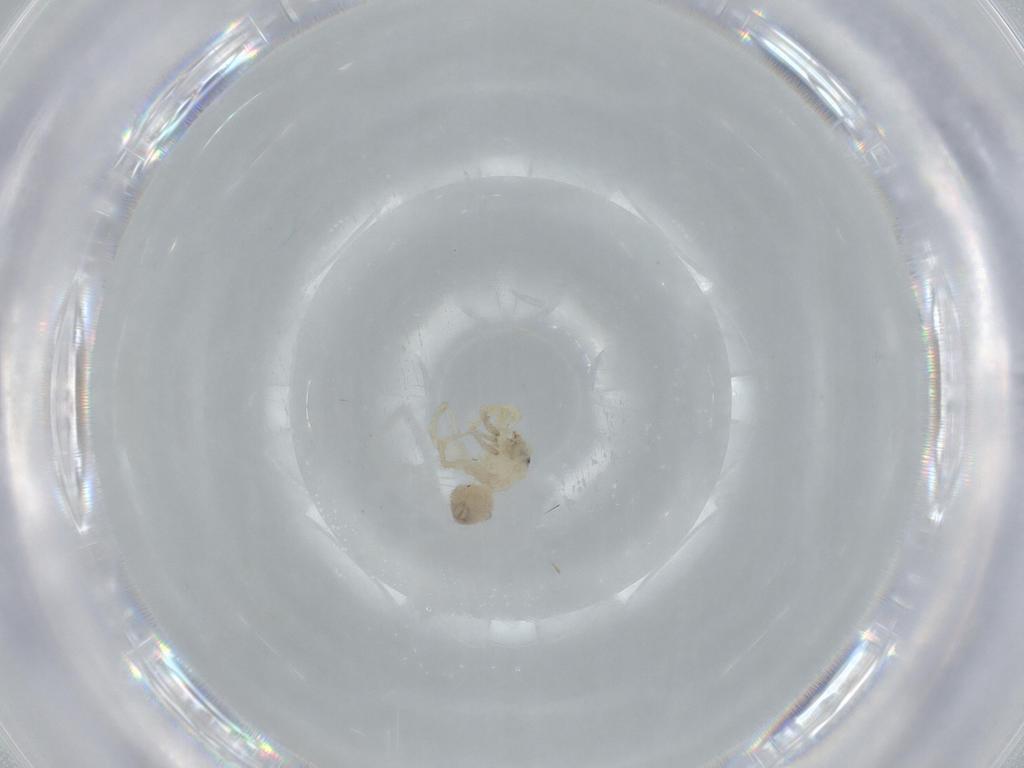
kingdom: Animalia
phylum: Arthropoda
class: Arachnida
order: Araneae
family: Oonopidae
